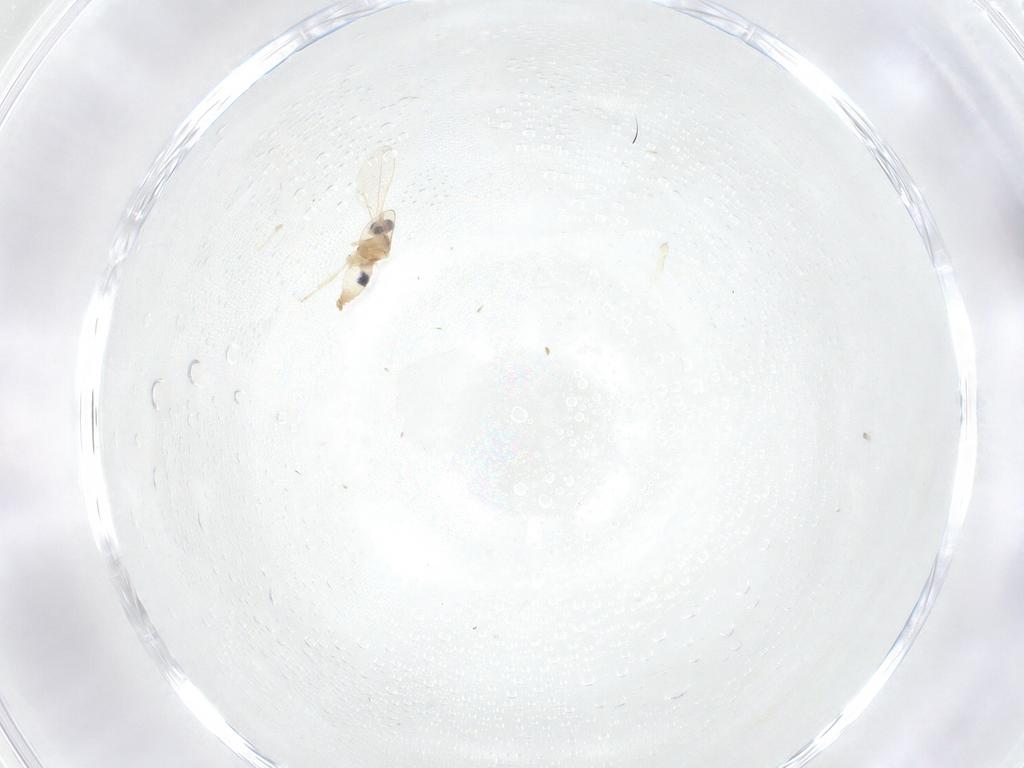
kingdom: Animalia
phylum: Arthropoda
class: Insecta
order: Diptera
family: Cecidomyiidae
